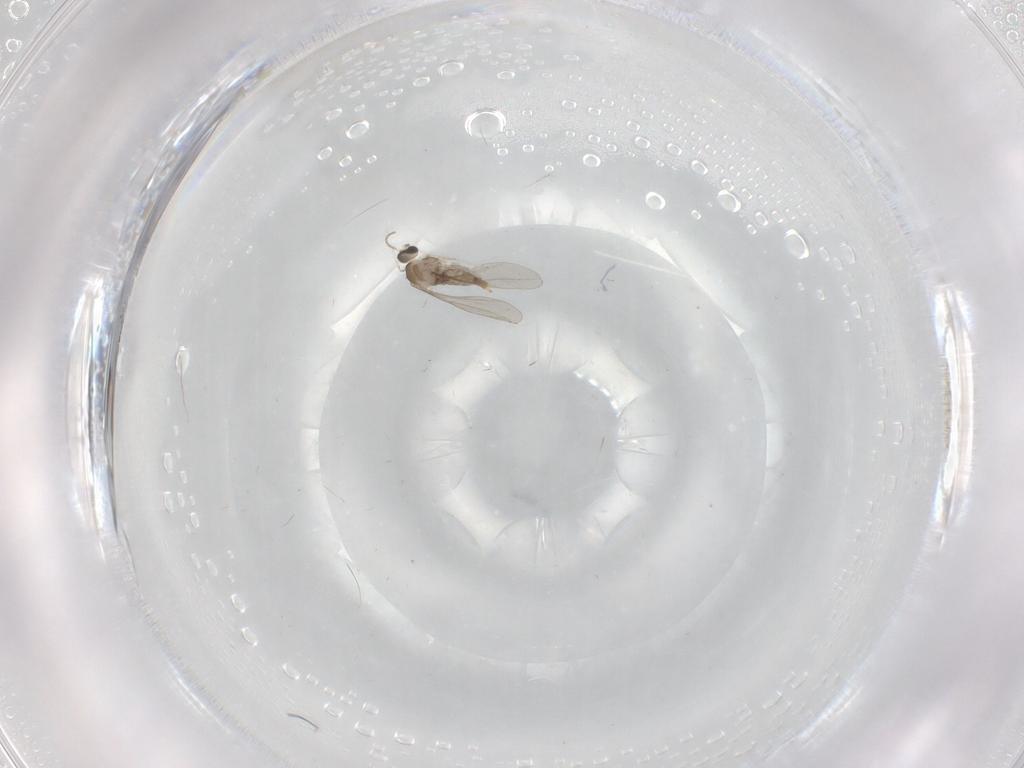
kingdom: Animalia
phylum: Arthropoda
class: Insecta
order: Diptera
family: Cecidomyiidae
